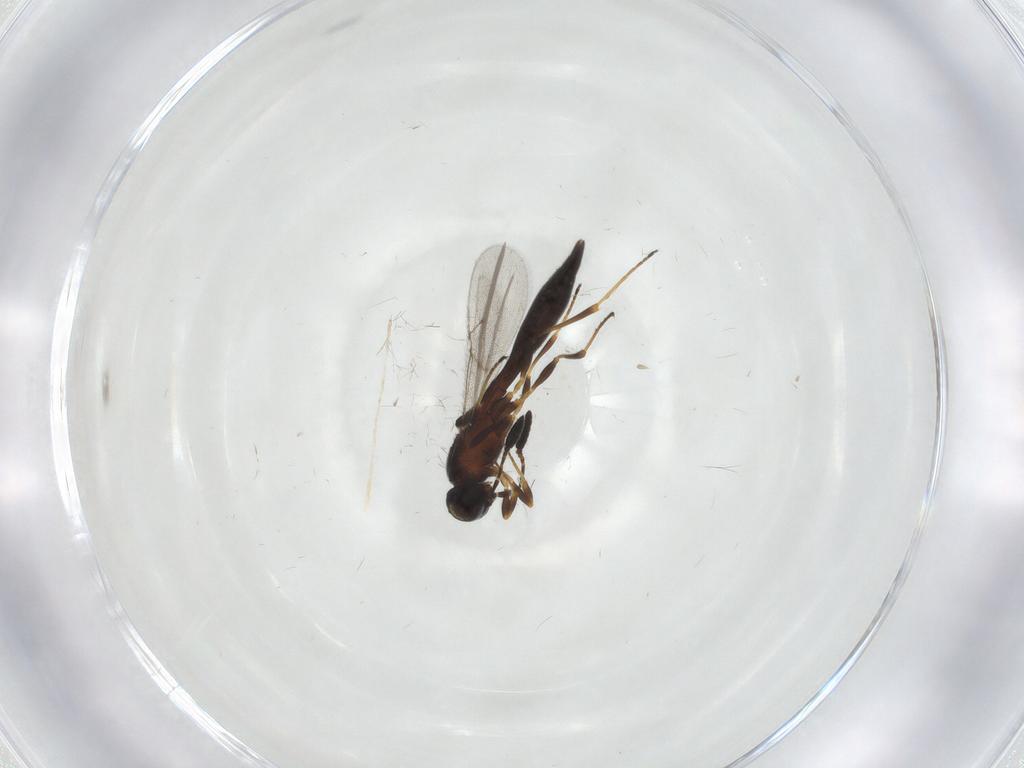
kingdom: Animalia
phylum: Arthropoda
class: Insecta
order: Hymenoptera
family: Scelionidae
